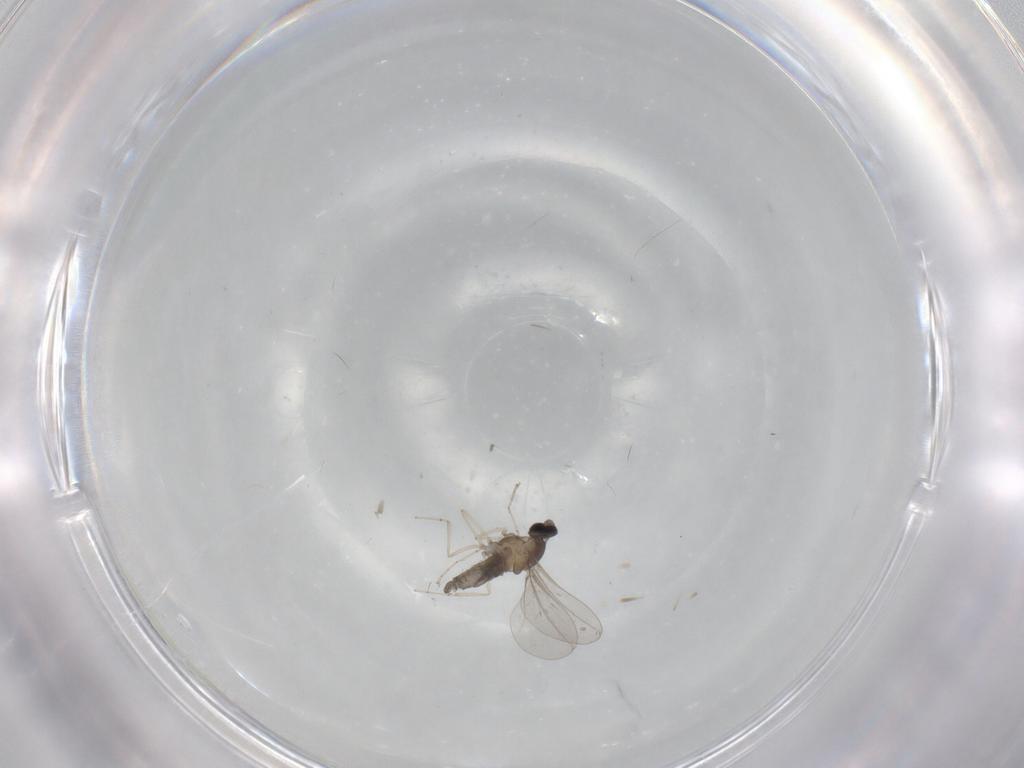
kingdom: Animalia
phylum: Arthropoda
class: Insecta
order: Diptera
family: Cecidomyiidae
